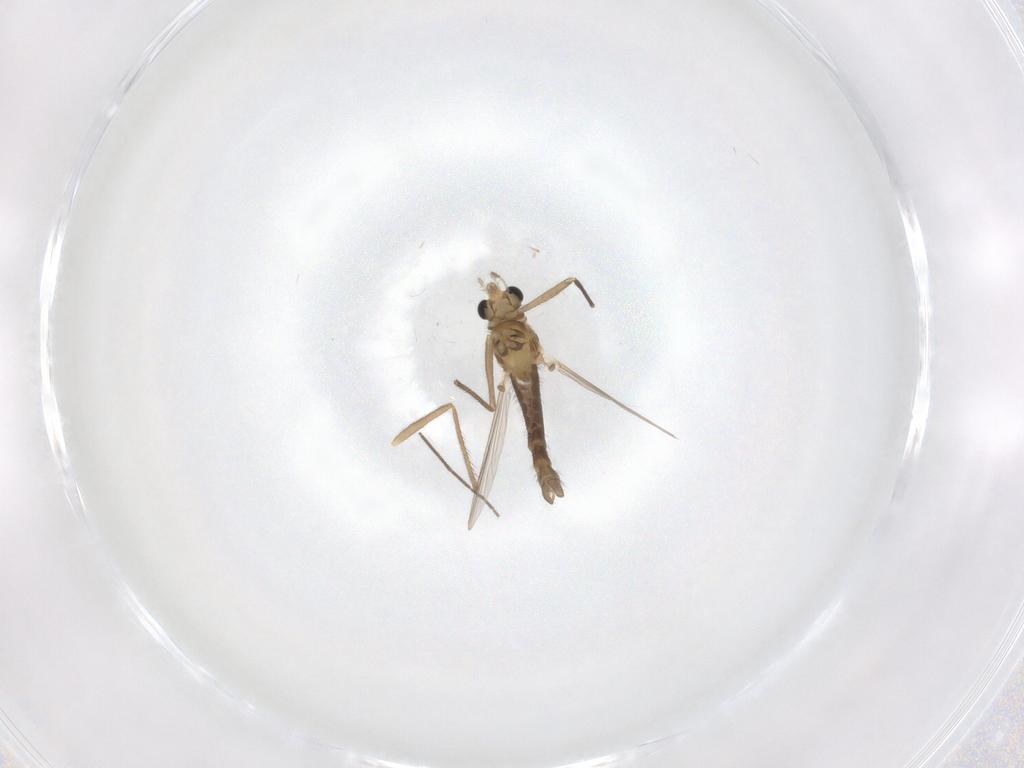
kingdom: Animalia
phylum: Arthropoda
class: Insecta
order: Diptera
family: Chironomidae
